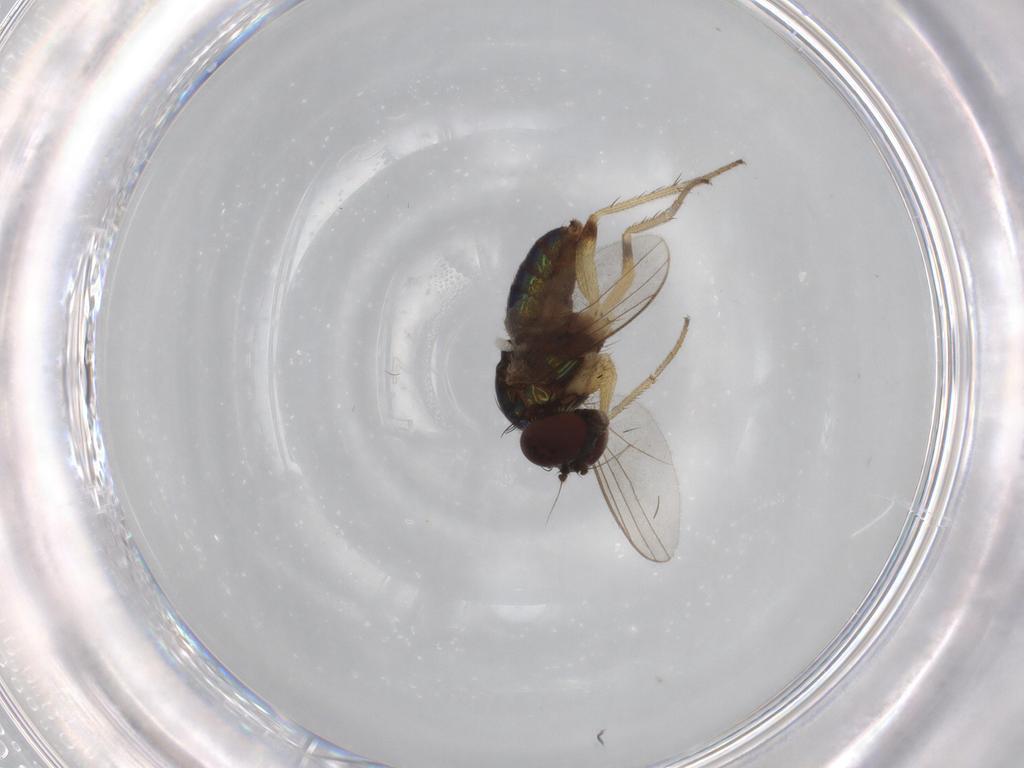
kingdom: Animalia
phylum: Arthropoda
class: Insecta
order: Diptera
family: Dolichopodidae
